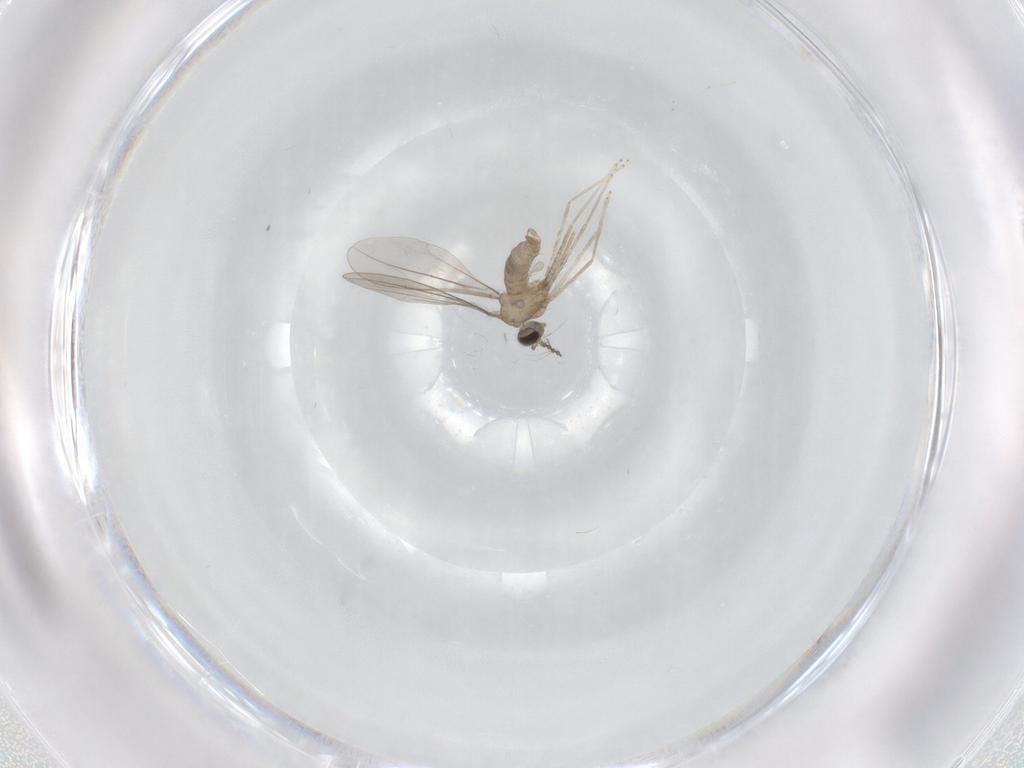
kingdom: Animalia
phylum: Arthropoda
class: Insecta
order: Diptera
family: Cecidomyiidae
